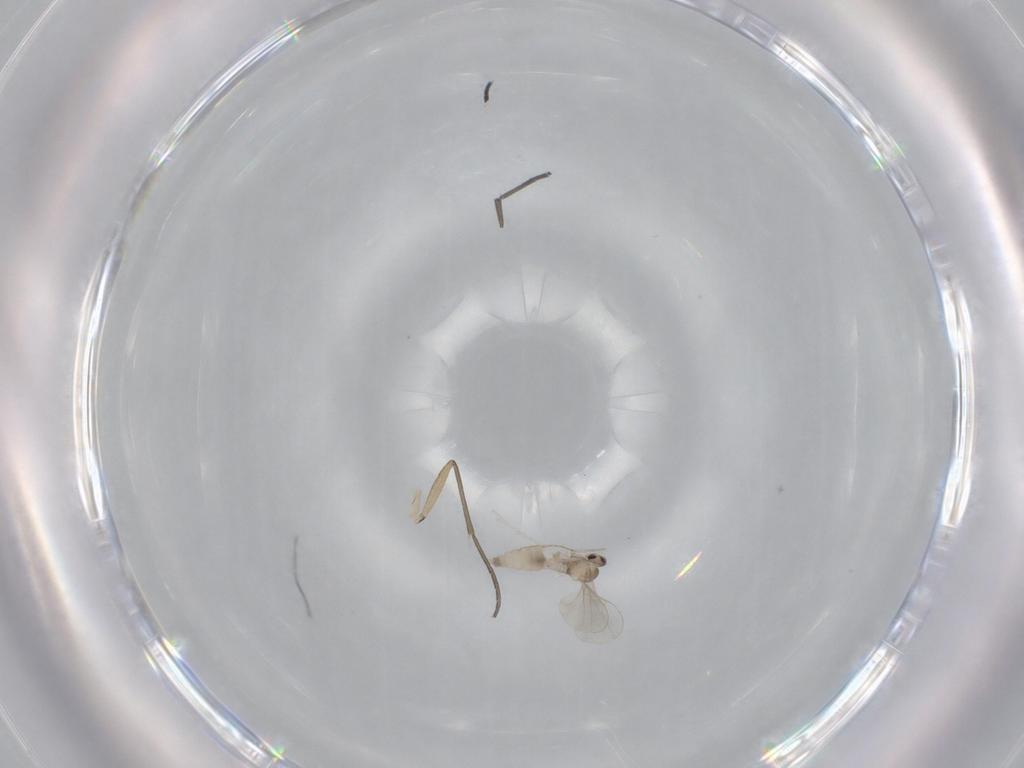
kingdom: Animalia
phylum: Arthropoda
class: Insecta
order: Diptera
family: Cecidomyiidae
